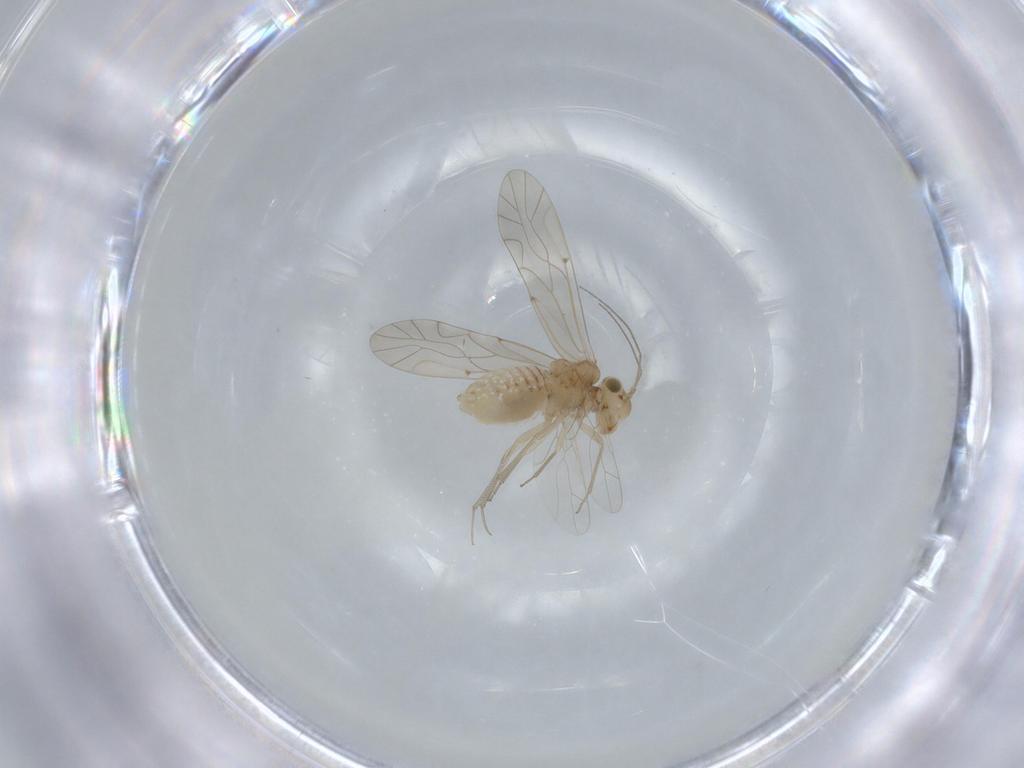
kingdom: Animalia
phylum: Arthropoda
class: Insecta
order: Psocodea
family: Lachesillidae
